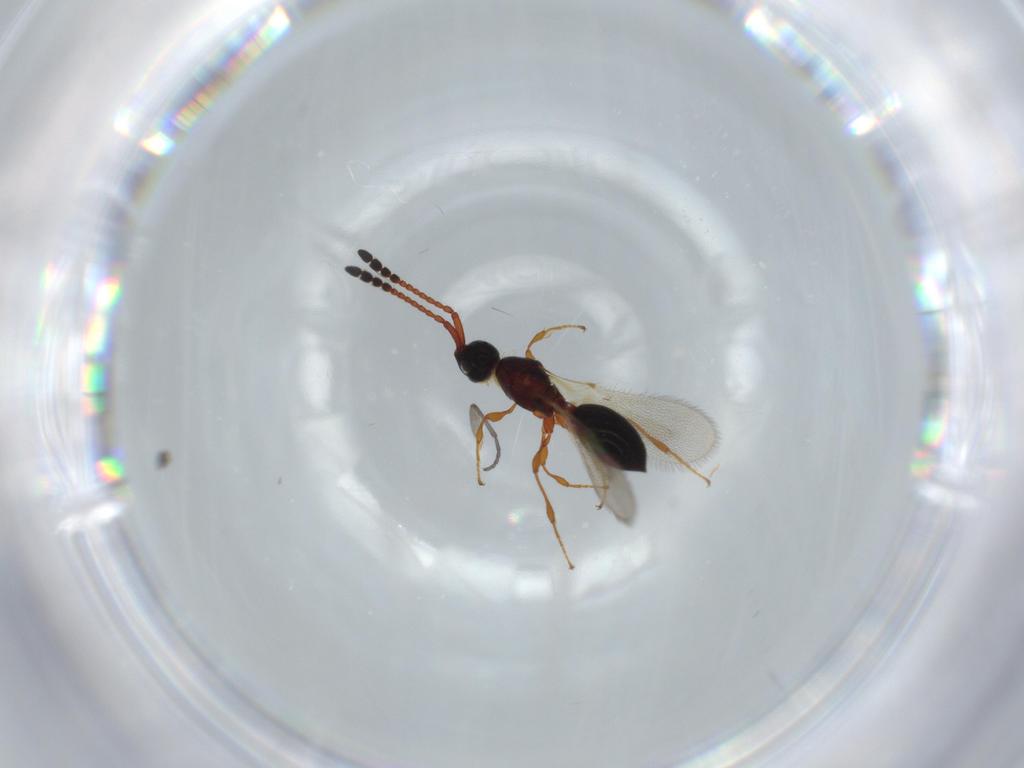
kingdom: Animalia
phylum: Arthropoda
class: Insecta
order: Hymenoptera
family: Diapriidae
